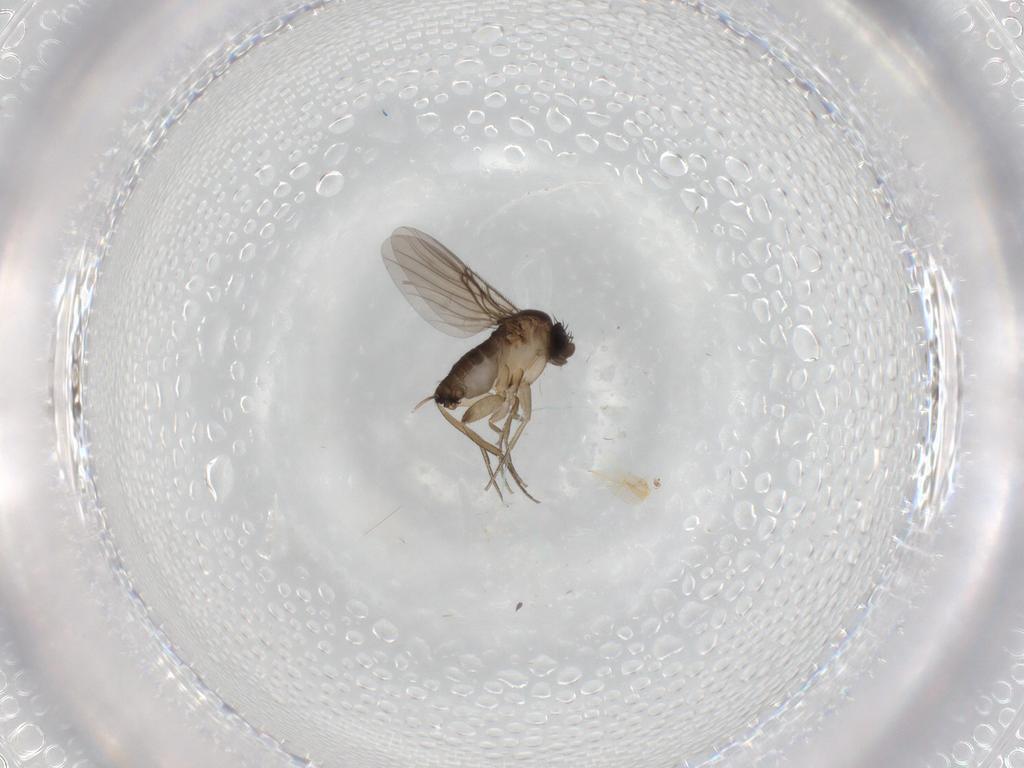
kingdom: Animalia
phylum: Arthropoda
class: Insecta
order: Diptera
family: Phoridae
